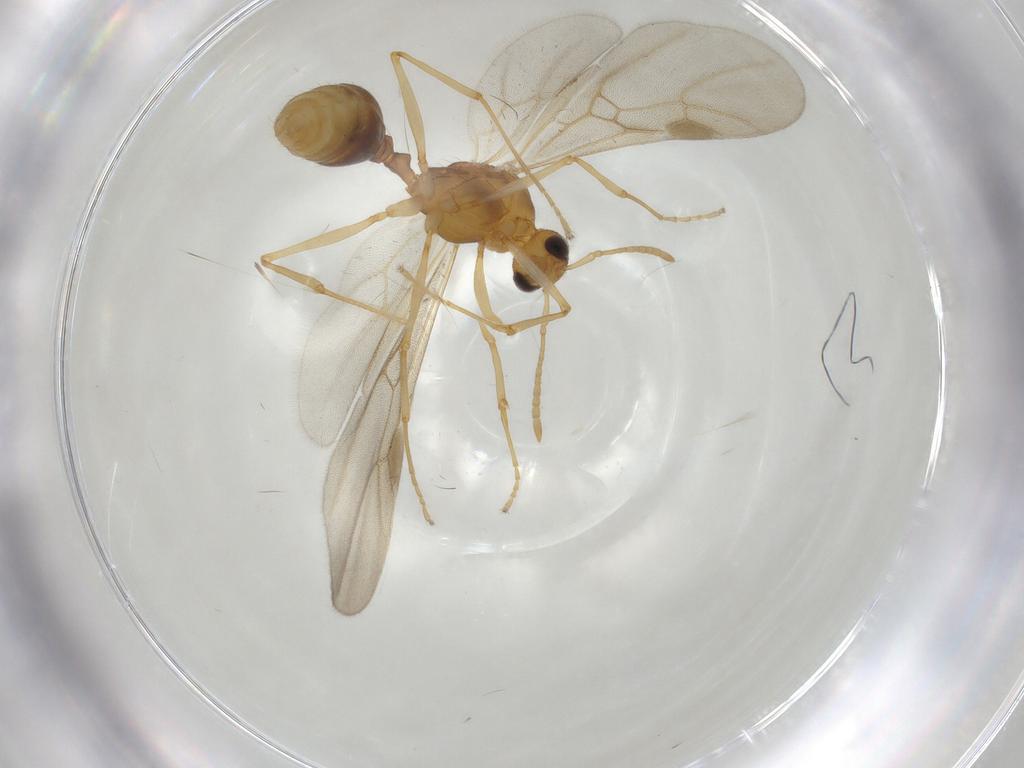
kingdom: Animalia
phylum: Arthropoda
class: Insecta
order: Hymenoptera
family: Formicidae
